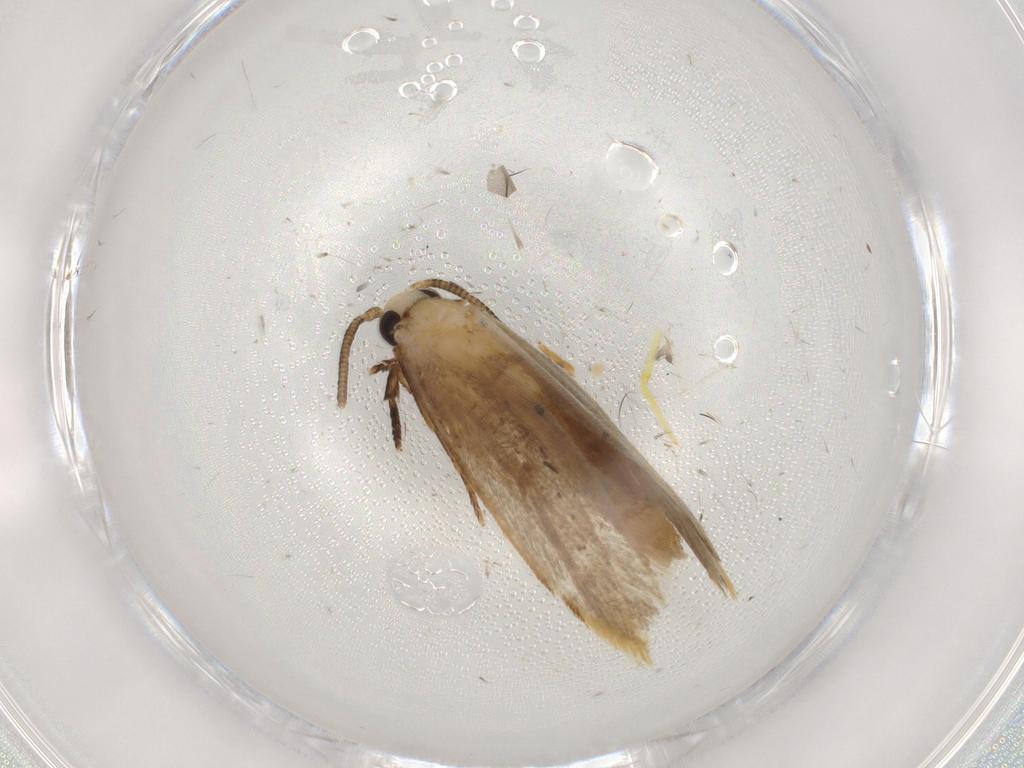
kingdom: Animalia
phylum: Arthropoda
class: Insecta
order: Lepidoptera
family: Tineidae
